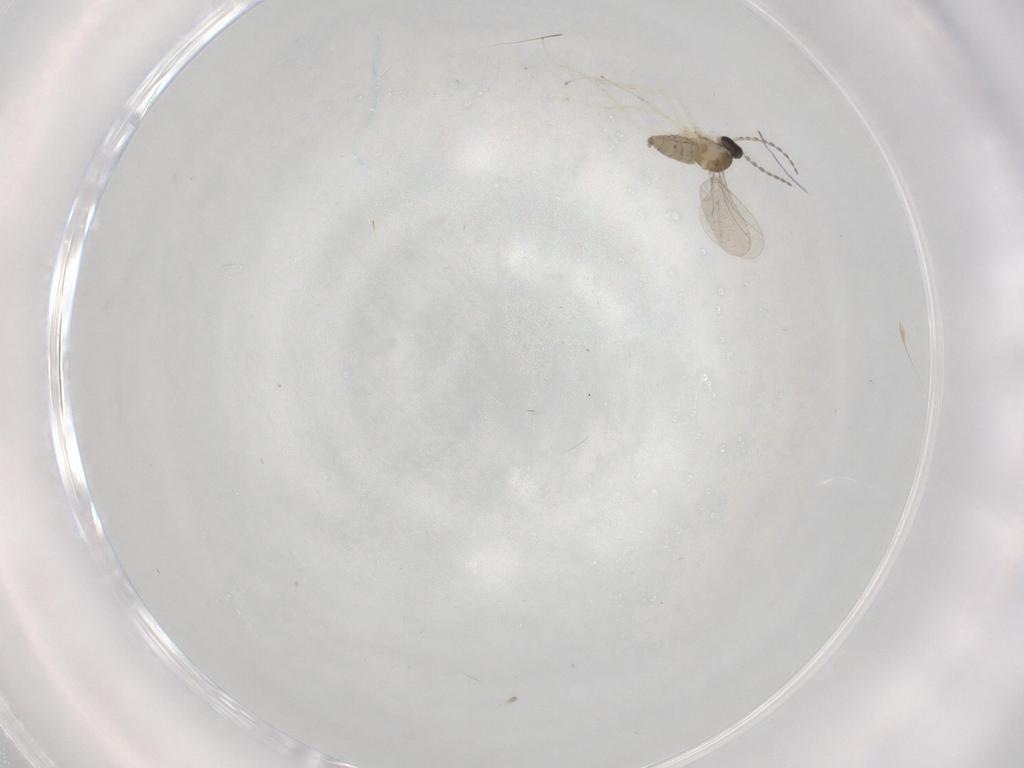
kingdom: Animalia
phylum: Arthropoda
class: Insecta
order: Diptera
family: Cecidomyiidae
